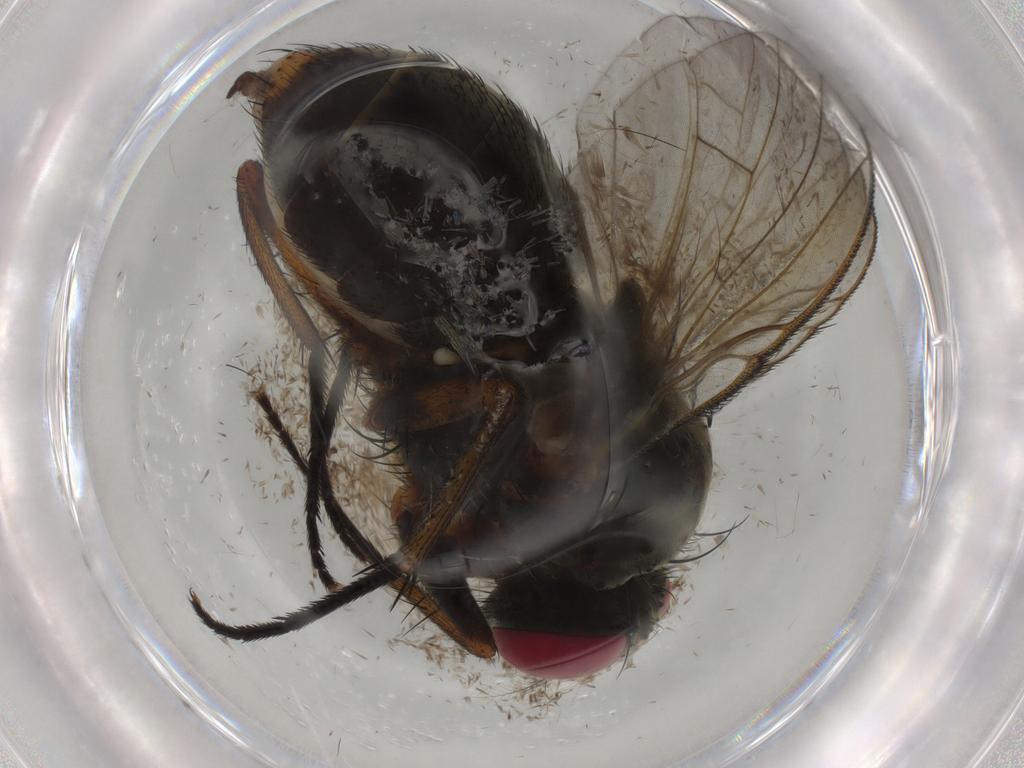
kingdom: Animalia
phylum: Arthropoda
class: Insecta
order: Diptera
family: Muscidae
